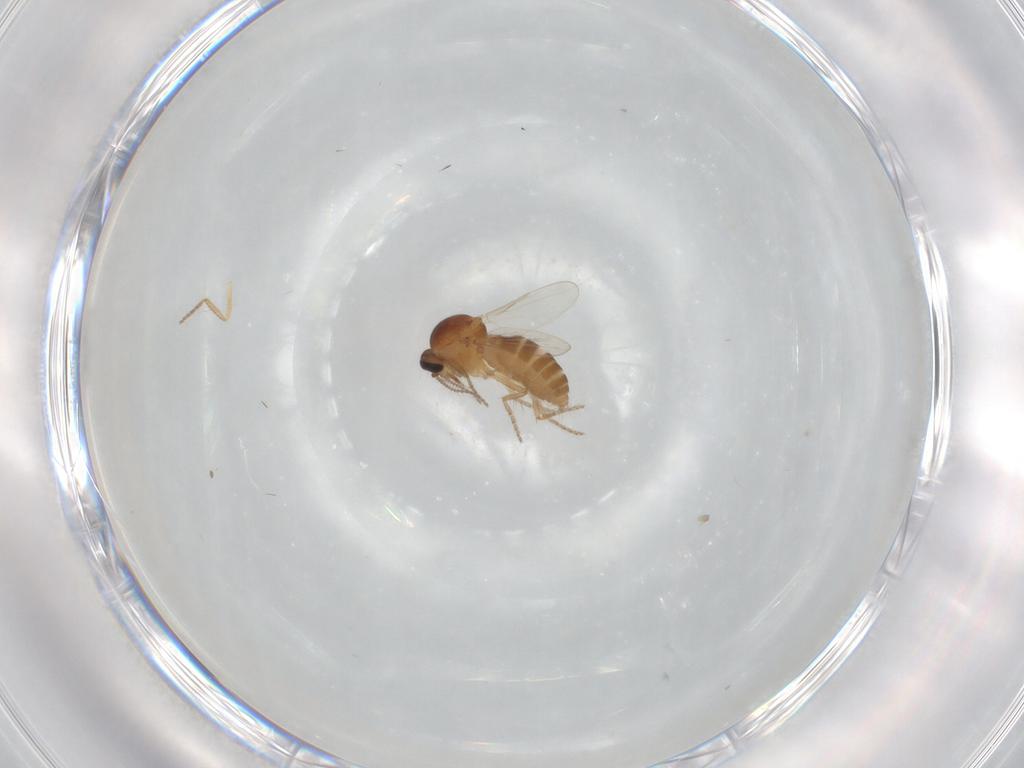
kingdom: Animalia
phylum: Arthropoda
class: Insecta
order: Diptera
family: Ceratopogonidae
